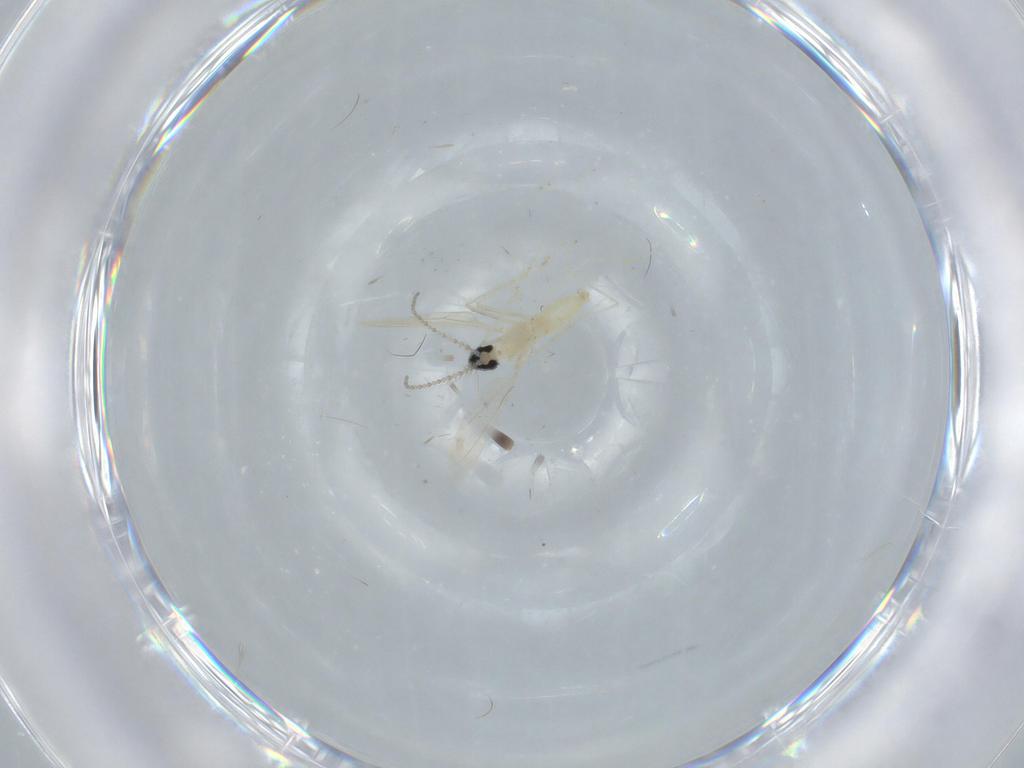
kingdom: Animalia
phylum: Arthropoda
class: Insecta
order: Diptera
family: Cecidomyiidae
